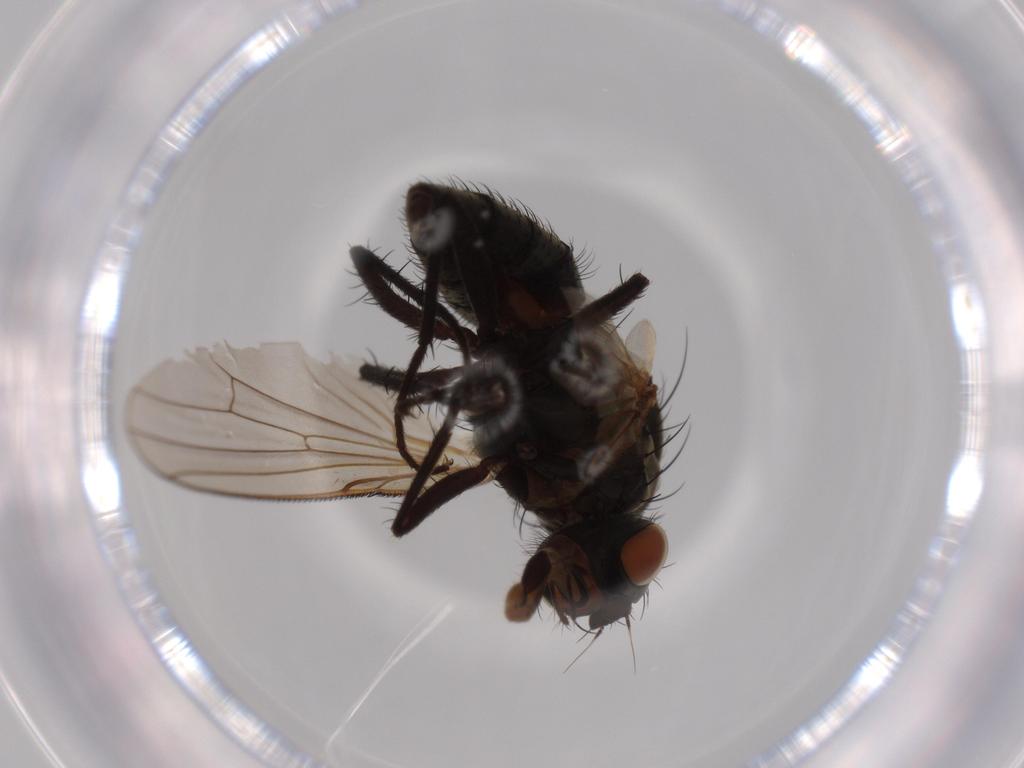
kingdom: Animalia
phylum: Arthropoda
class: Insecta
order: Diptera
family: Anthomyiidae
